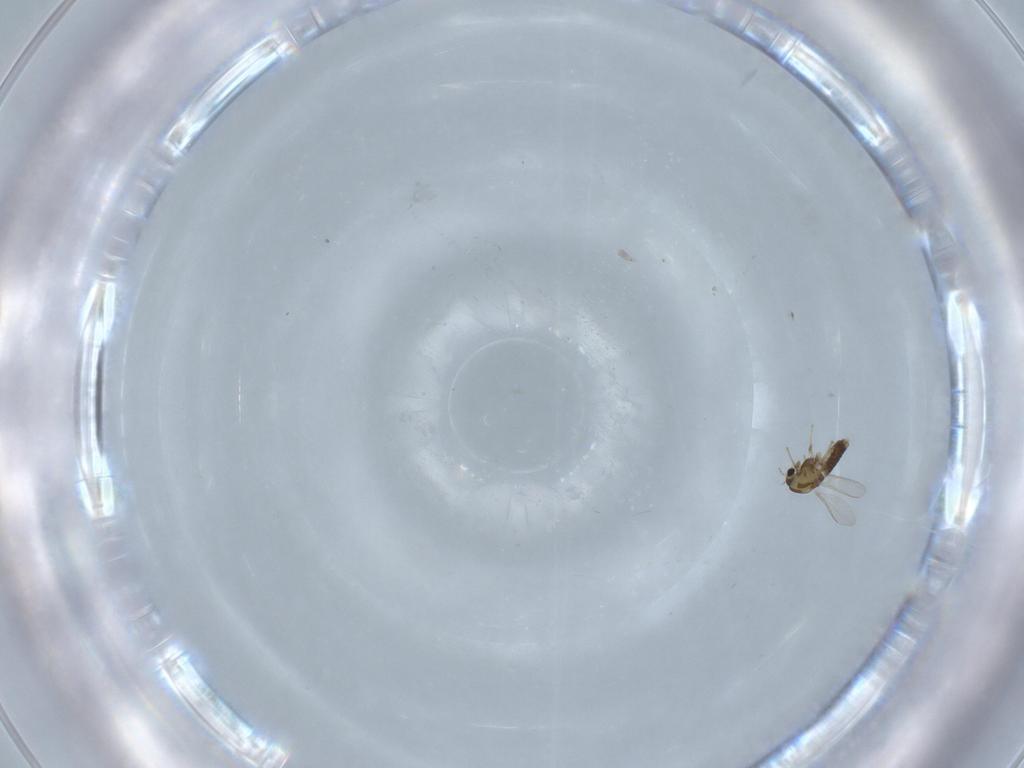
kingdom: Animalia
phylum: Arthropoda
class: Insecta
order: Diptera
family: Chironomidae
